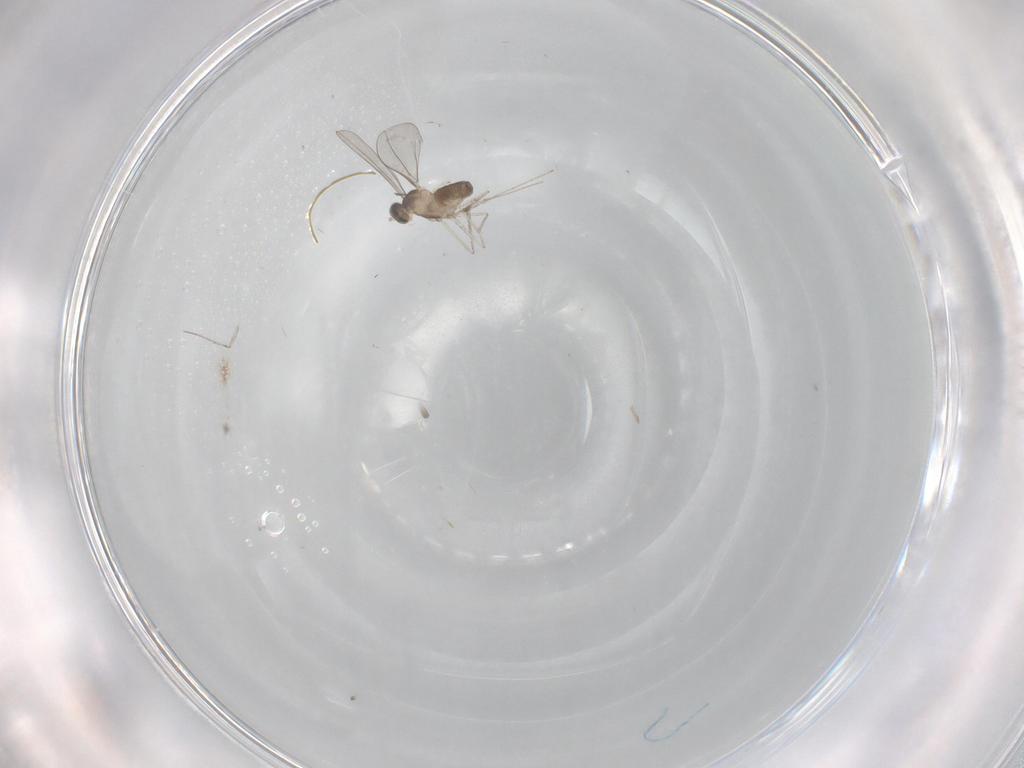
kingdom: Animalia
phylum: Arthropoda
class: Insecta
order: Diptera
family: Cecidomyiidae
